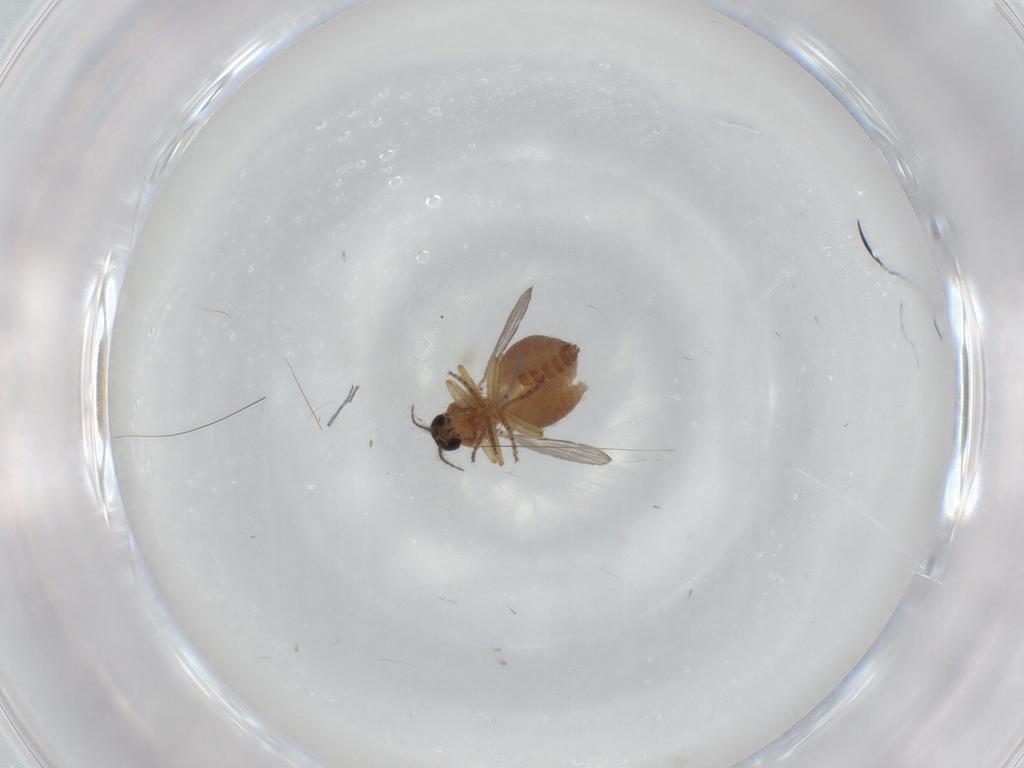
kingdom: Animalia
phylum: Arthropoda
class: Insecta
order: Diptera
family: Ceratopogonidae
